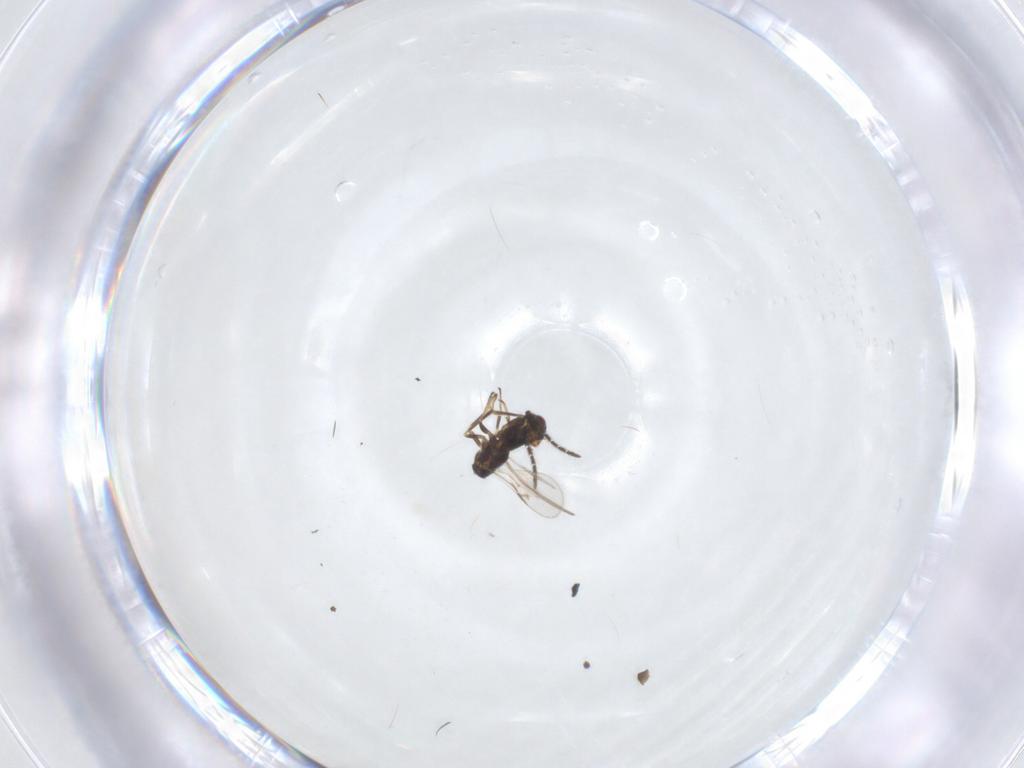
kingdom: Animalia
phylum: Arthropoda
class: Insecta
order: Hymenoptera
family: Encyrtidae
